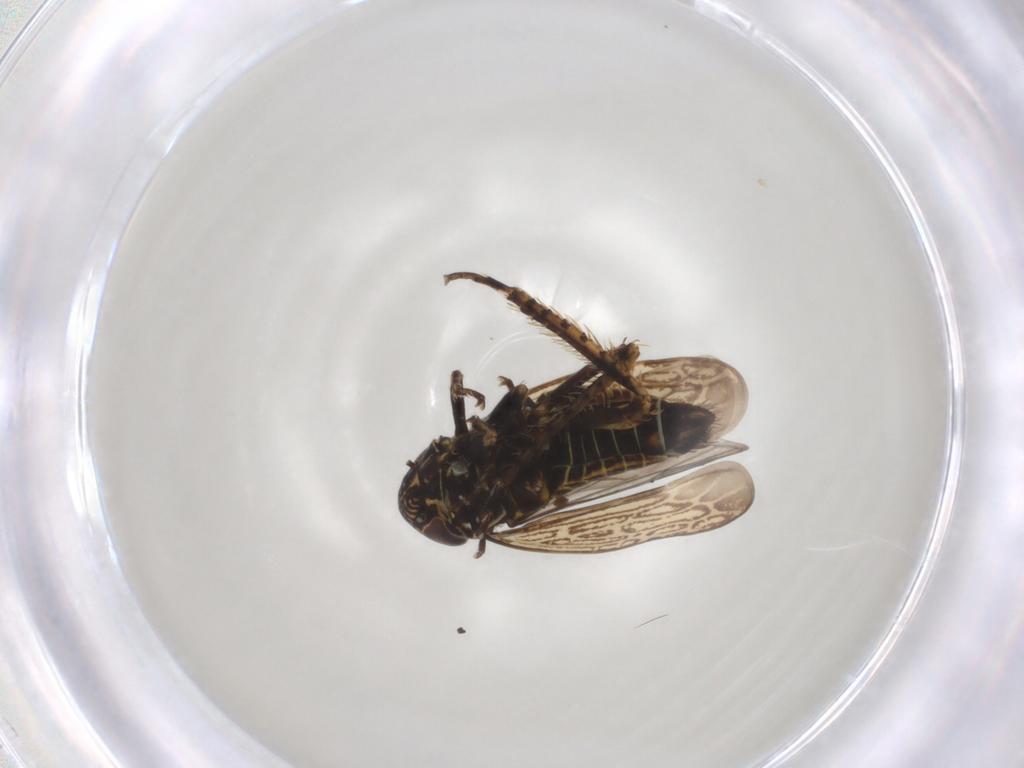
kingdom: Animalia
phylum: Arthropoda
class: Insecta
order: Hemiptera
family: Cicadellidae
